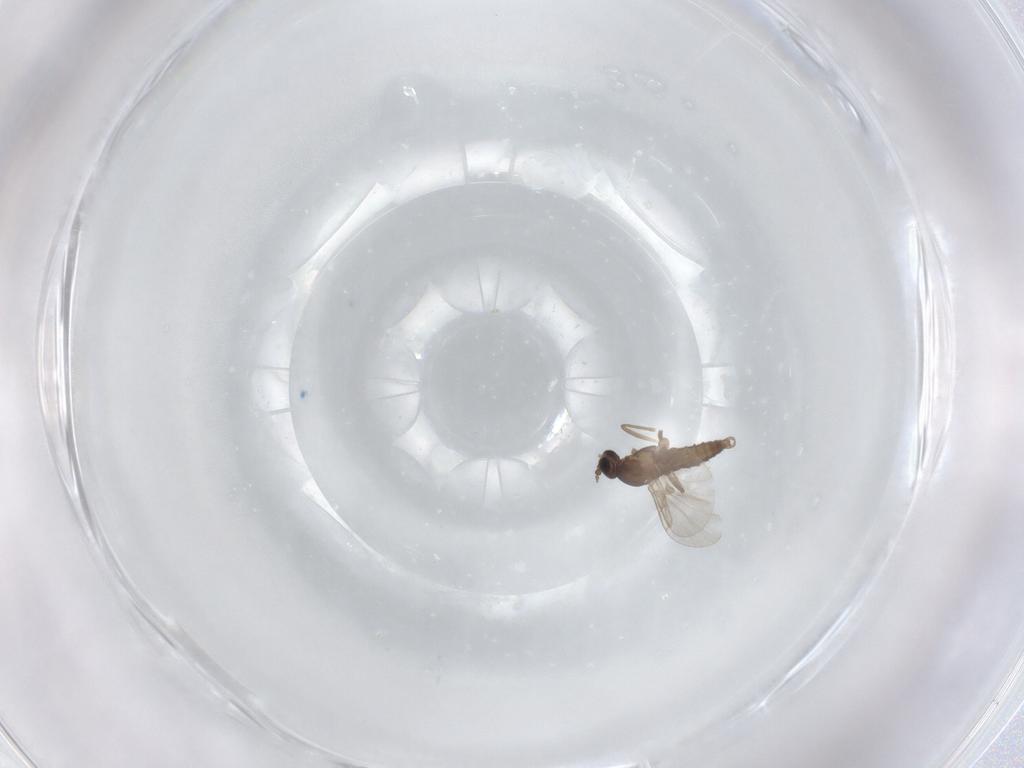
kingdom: Animalia
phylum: Arthropoda
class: Insecta
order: Diptera
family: Cecidomyiidae
